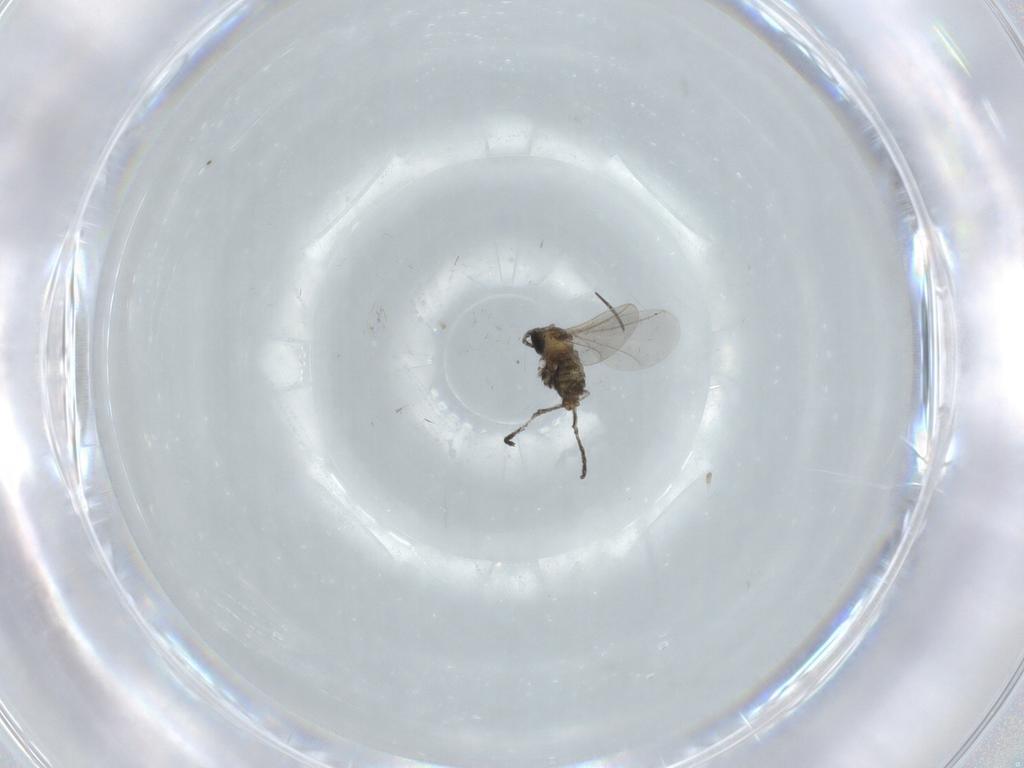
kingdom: Animalia
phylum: Arthropoda
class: Insecta
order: Diptera
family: Cecidomyiidae
